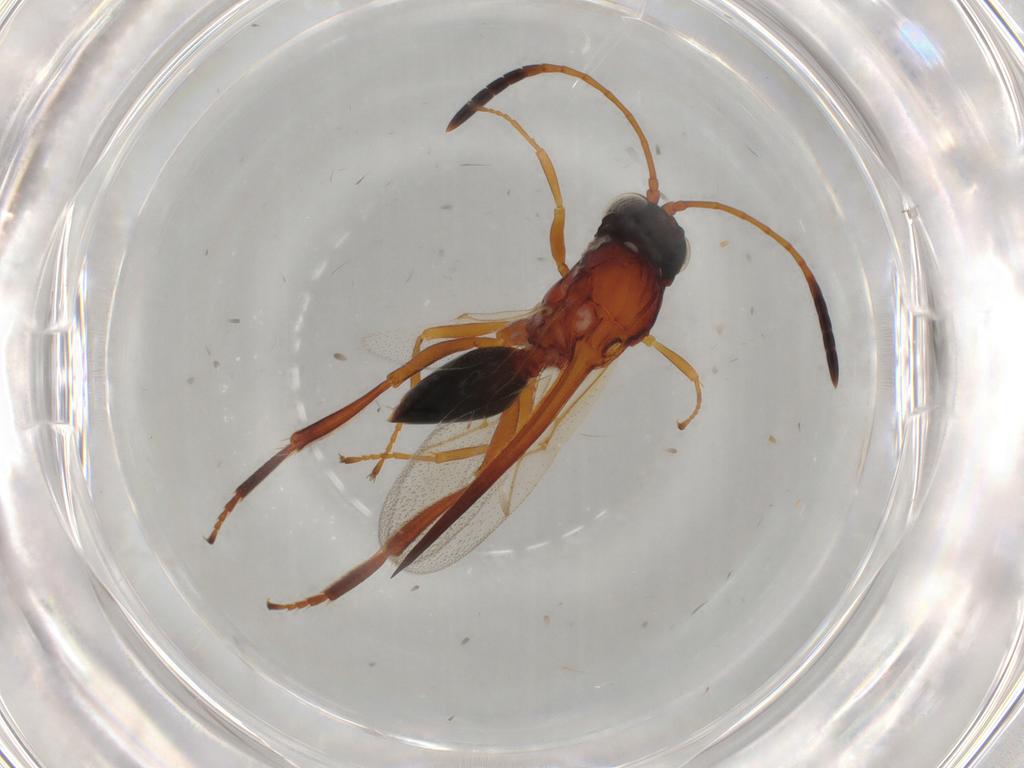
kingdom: Animalia
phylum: Arthropoda
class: Insecta
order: Hymenoptera
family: Figitidae
